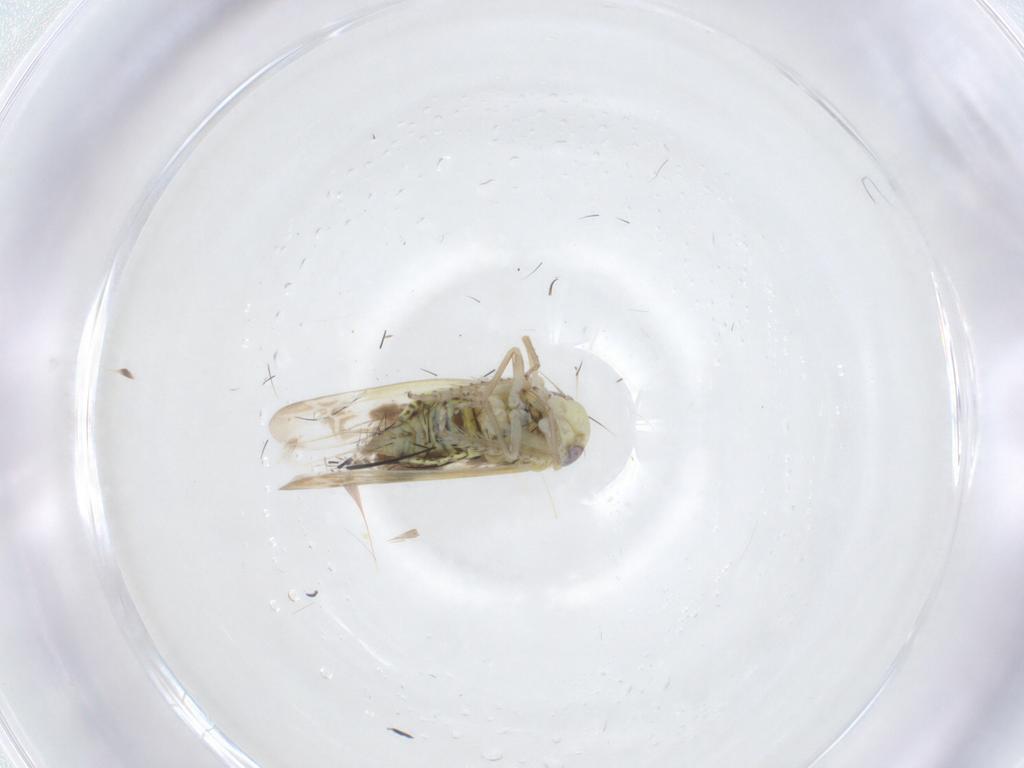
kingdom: Animalia
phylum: Arthropoda
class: Insecta
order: Hemiptera
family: Cicadellidae
